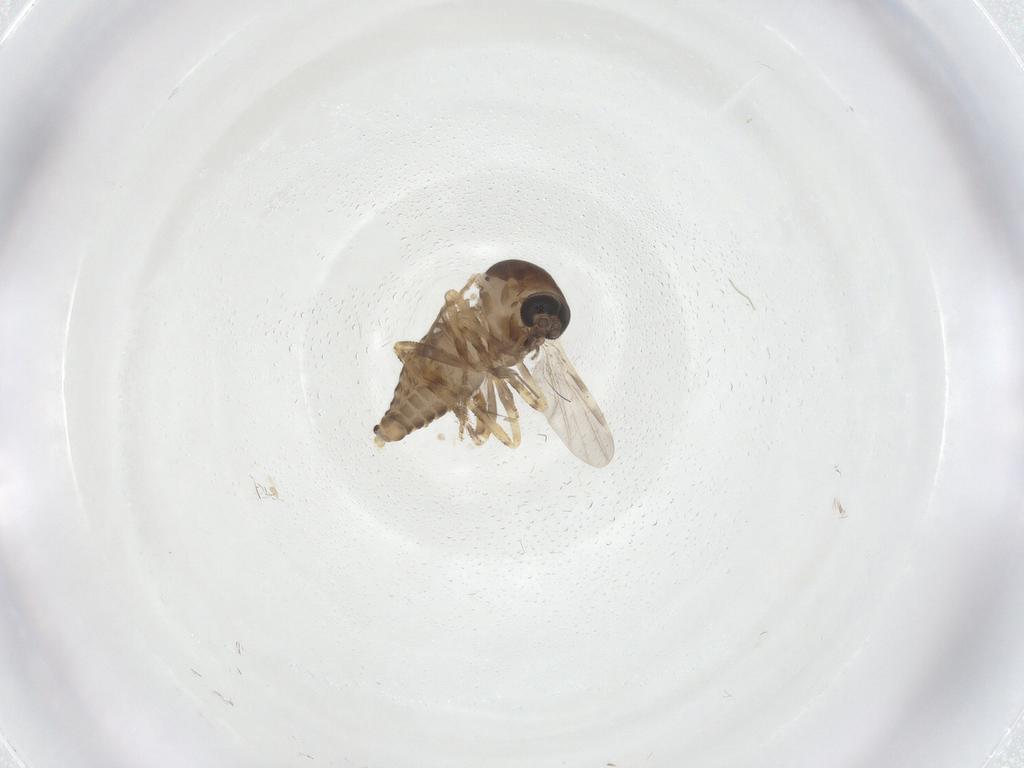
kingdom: Animalia
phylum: Arthropoda
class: Insecta
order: Diptera
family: Ceratopogonidae
